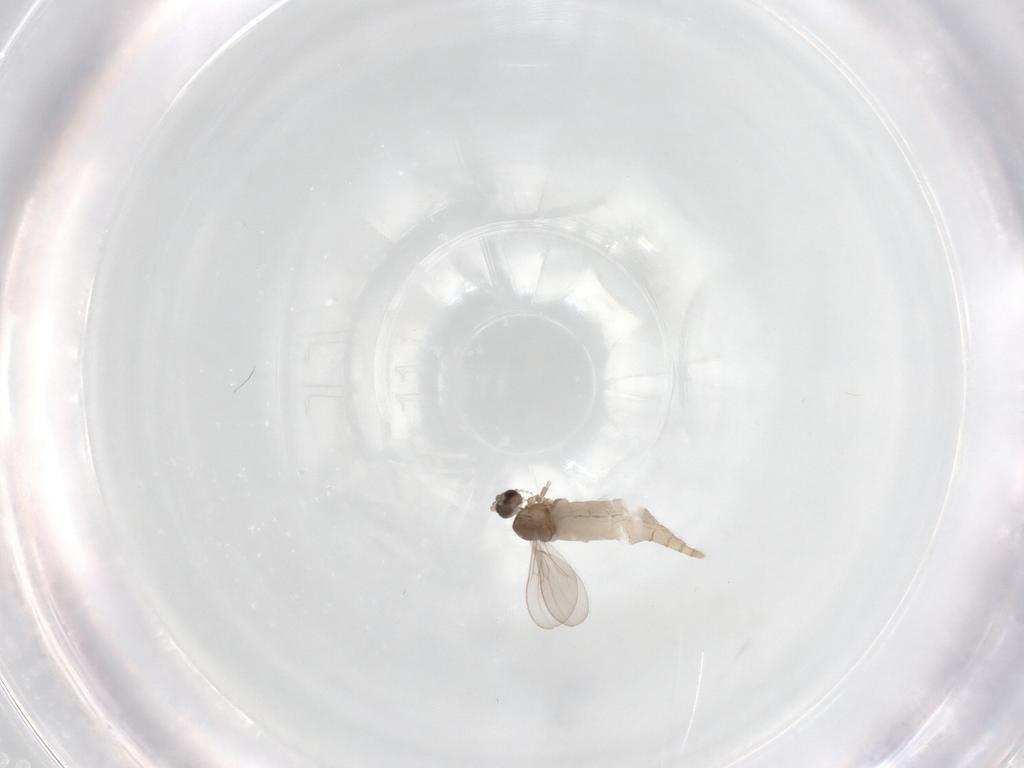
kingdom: Animalia
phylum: Arthropoda
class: Insecta
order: Diptera
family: Cecidomyiidae
